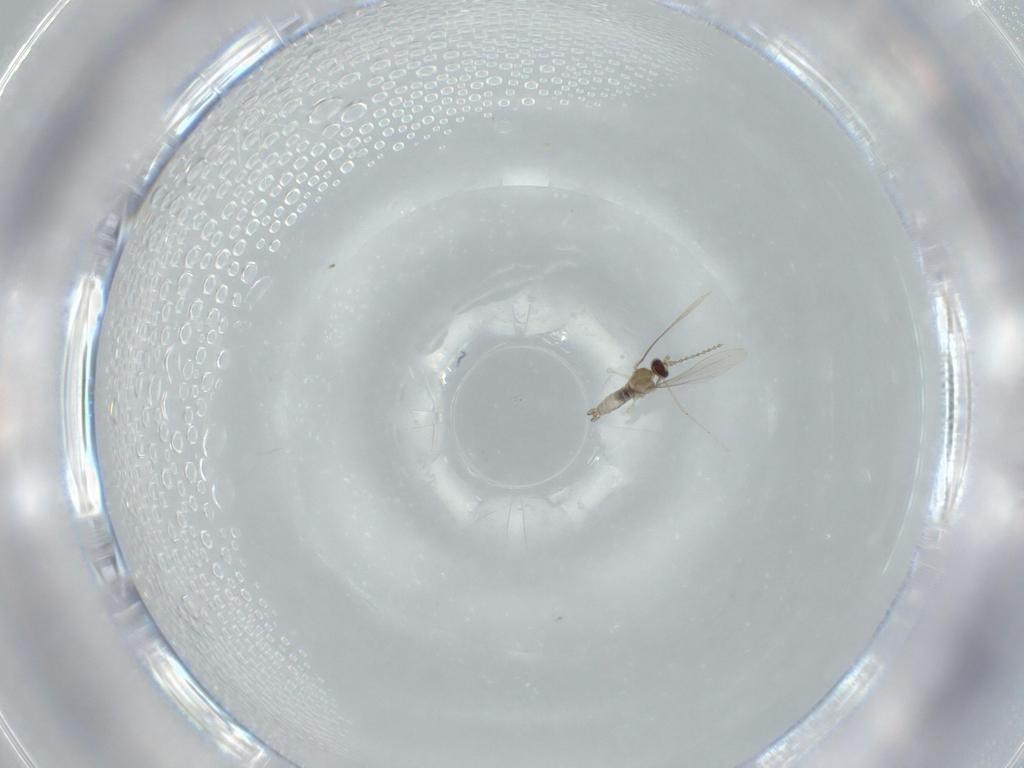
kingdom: Animalia
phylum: Arthropoda
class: Insecta
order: Diptera
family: Cecidomyiidae
